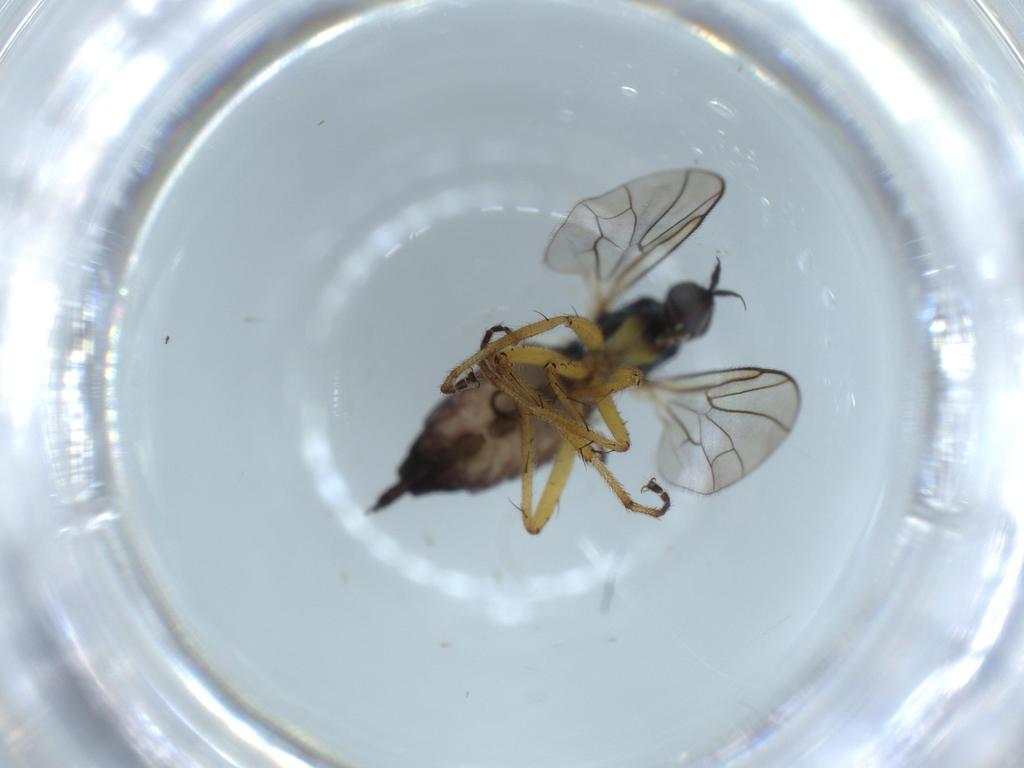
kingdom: Animalia
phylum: Arthropoda
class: Insecta
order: Diptera
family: Hybotidae
